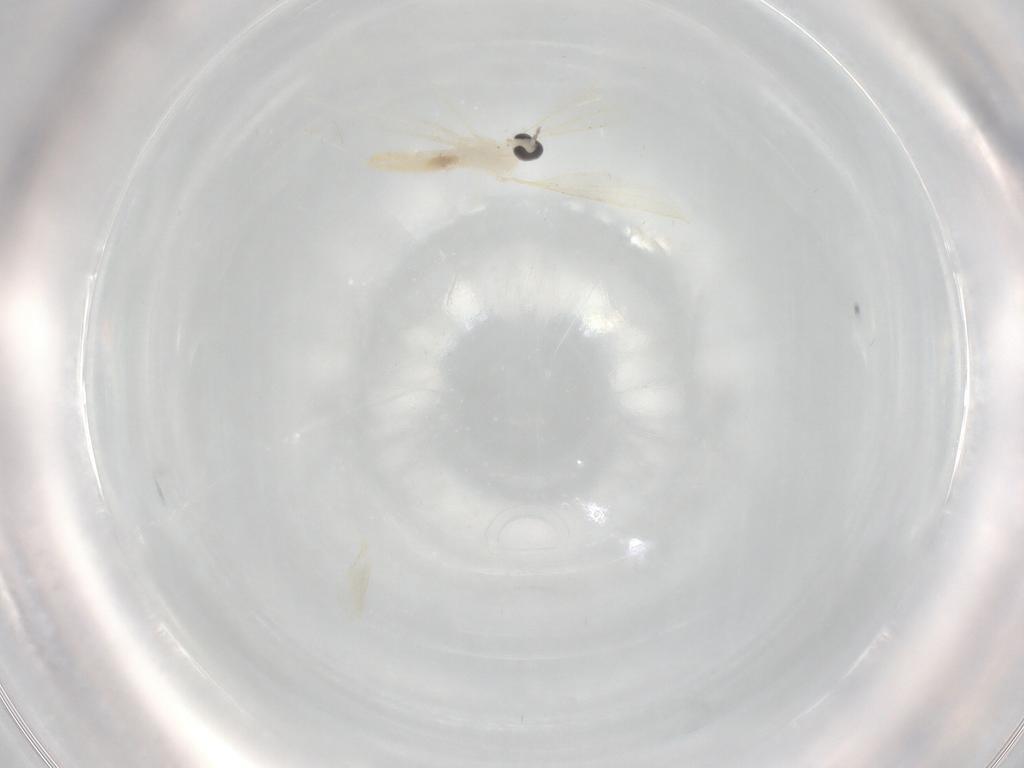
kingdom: Animalia
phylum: Arthropoda
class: Insecta
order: Diptera
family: Cecidomyiidae
